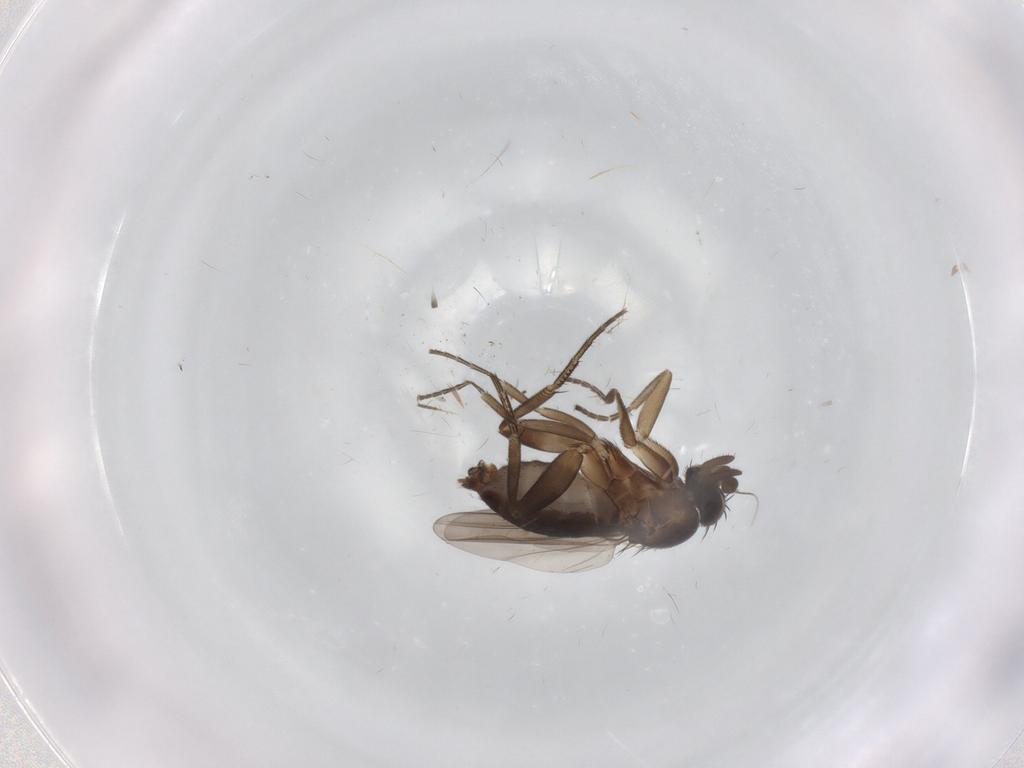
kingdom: Animalia
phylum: Arthropoda
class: Insecta
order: Diptera
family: Phoridae
